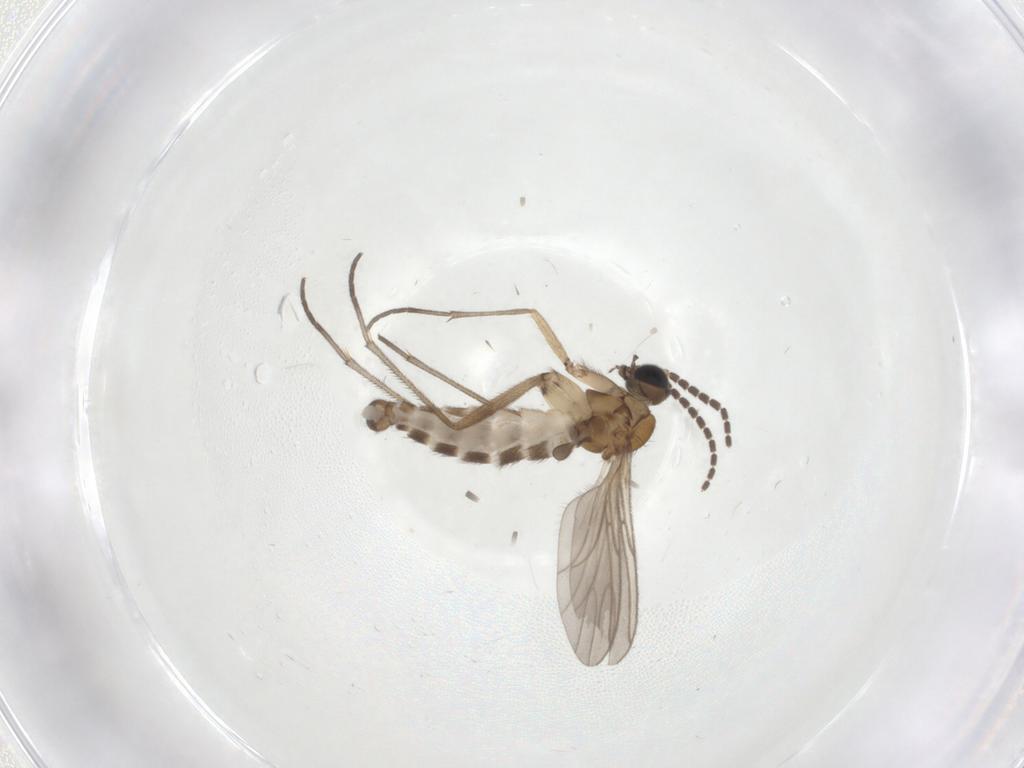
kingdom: Animalia
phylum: Arthropoda
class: Insecta
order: Diptera
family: Sciaridae
